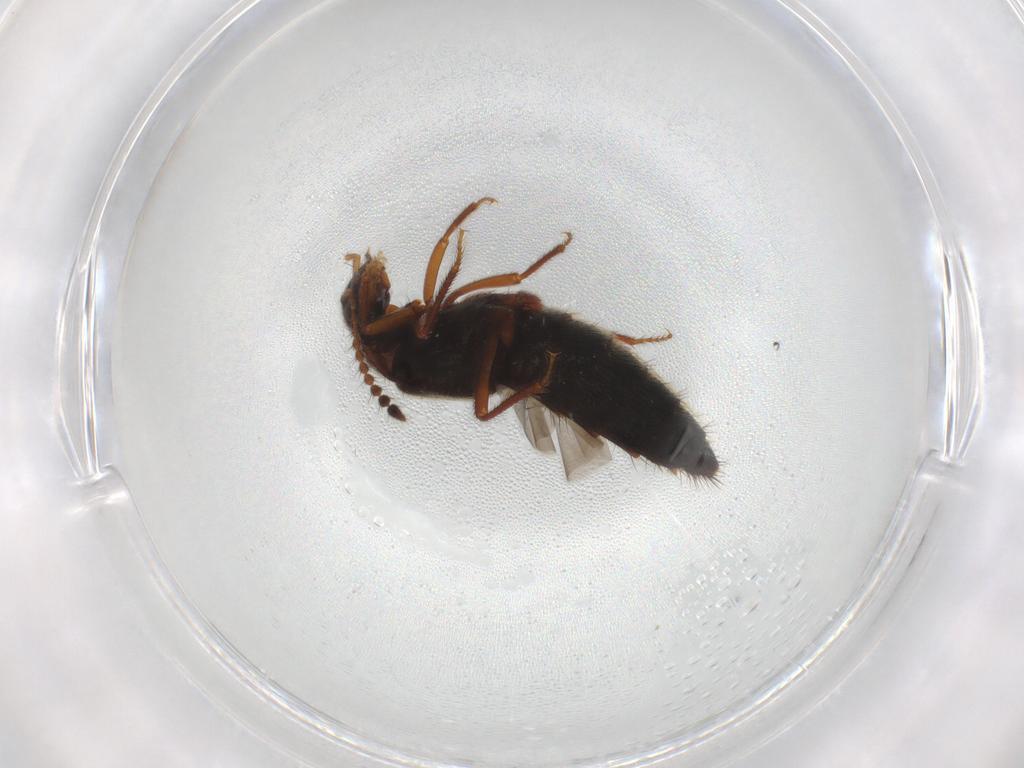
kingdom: Animalia
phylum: Arthropoda
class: Insecta
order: Coleoptera
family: Staphylinidae
